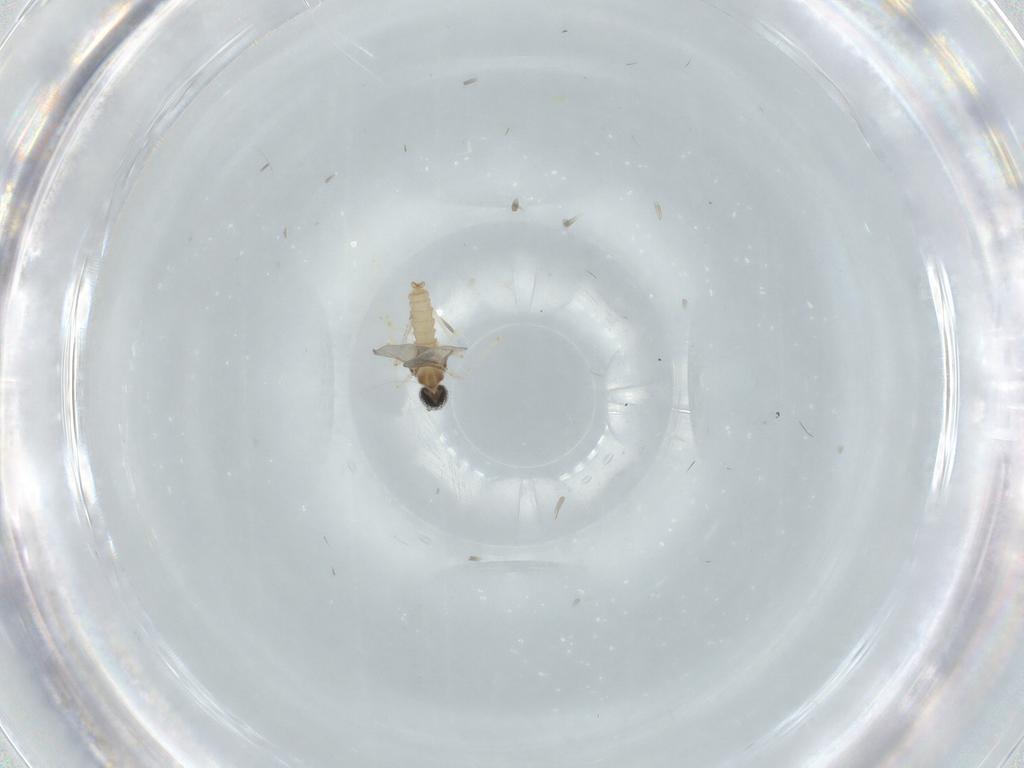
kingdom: Animalia
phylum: Arthropoda
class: Insecta
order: Diptera
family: Cecidomyiidae
